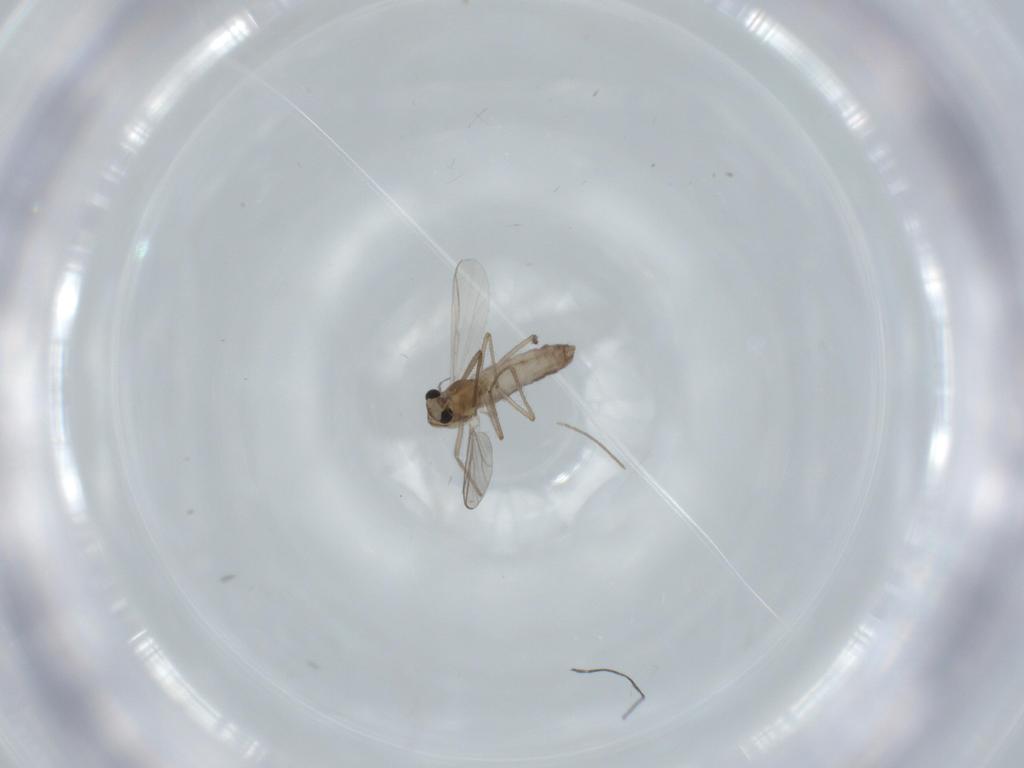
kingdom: Animalia
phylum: Arthropoda
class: Insecta
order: Diptera
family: Chironomidae
